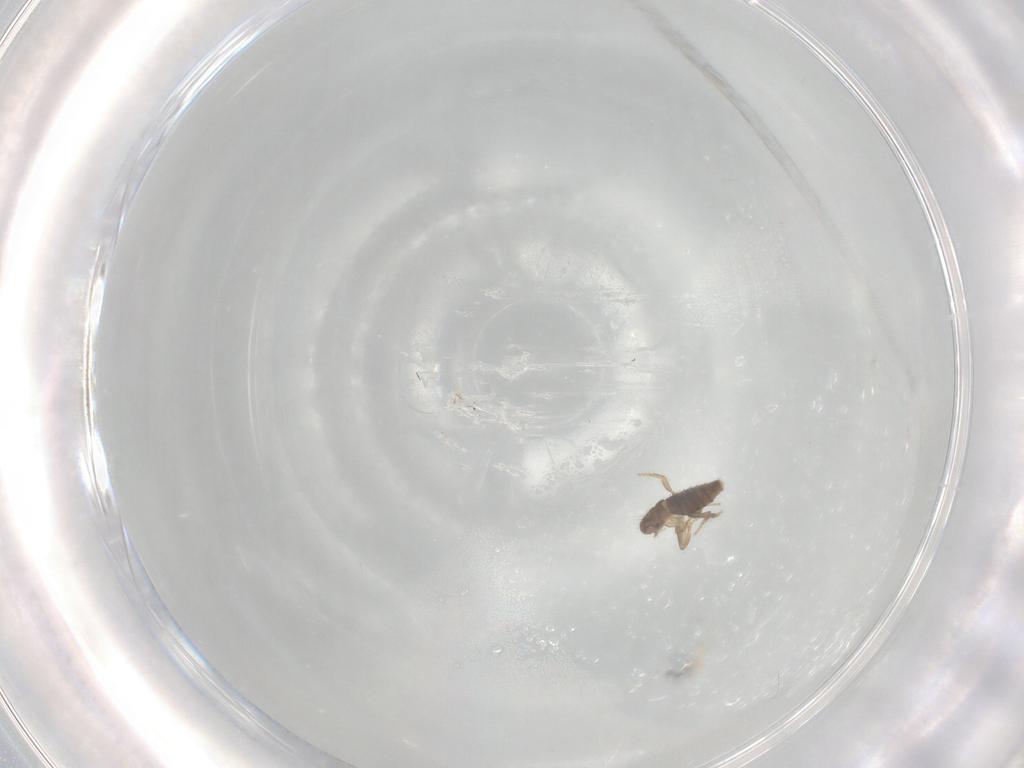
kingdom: Animalia
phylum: Arthropoda
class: Insecta
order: Diptera
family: Phoridae
